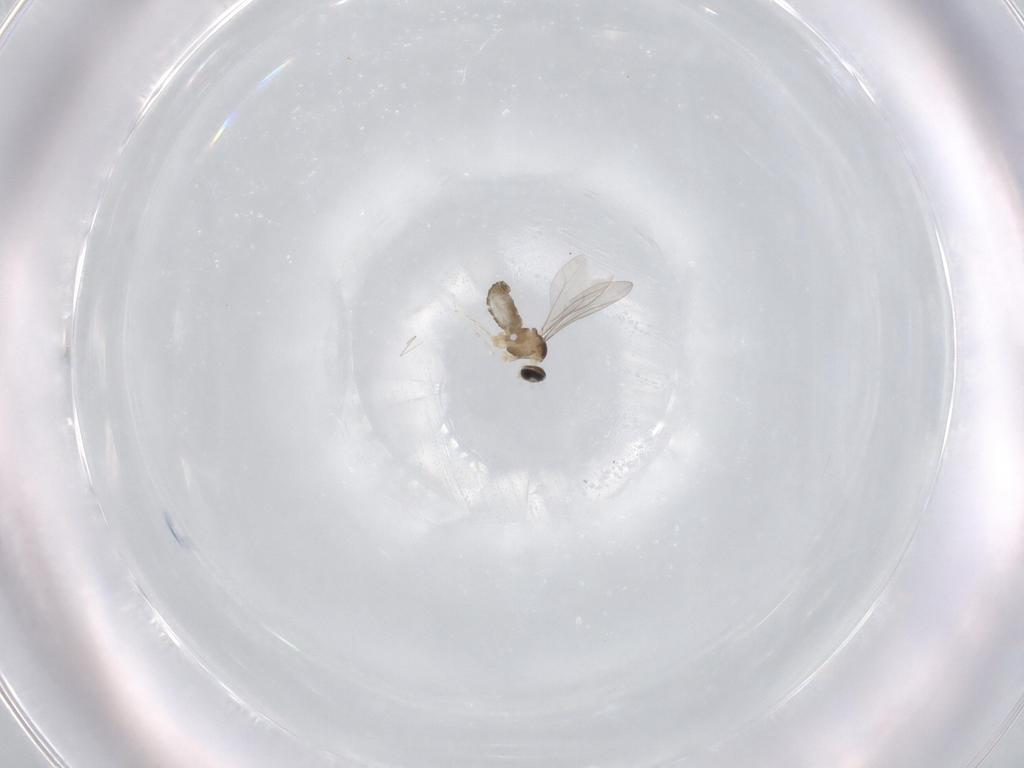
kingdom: Animalia
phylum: Arthropoda
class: Insecta
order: Diptera
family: Cecidomyiidae
